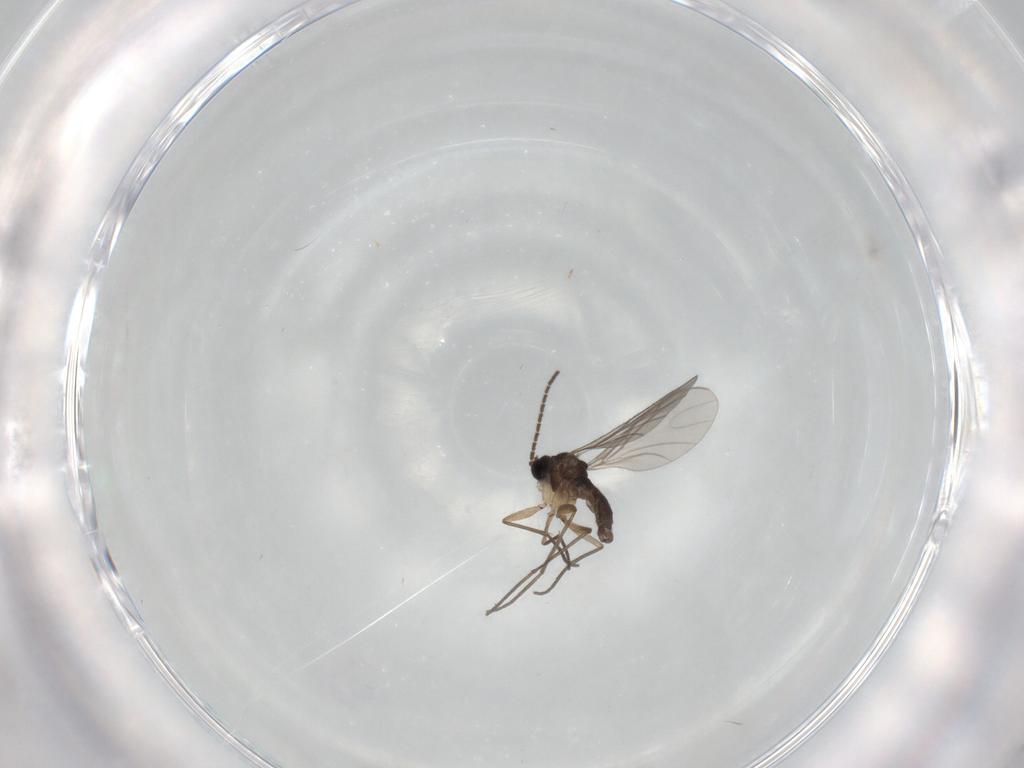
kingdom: Animalia
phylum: Arthropoda
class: Insecta
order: Diptera
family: Sciaridae
